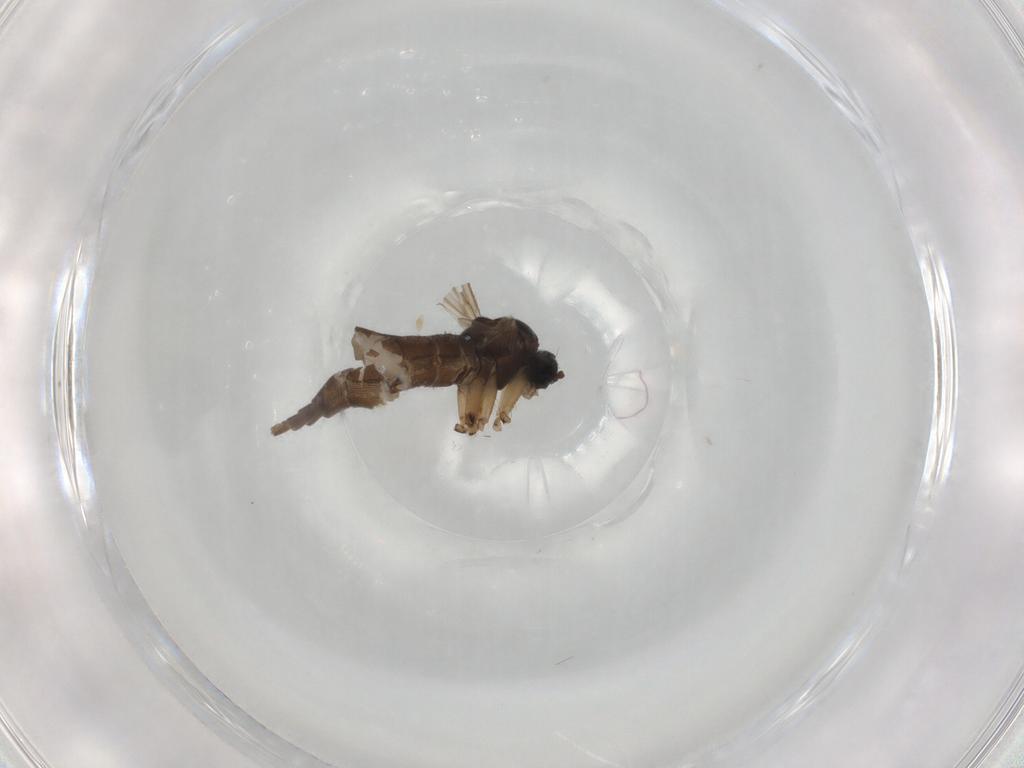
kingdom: Animalia
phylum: Arthropoda
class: Insecta
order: Diptera
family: Sciaridae
